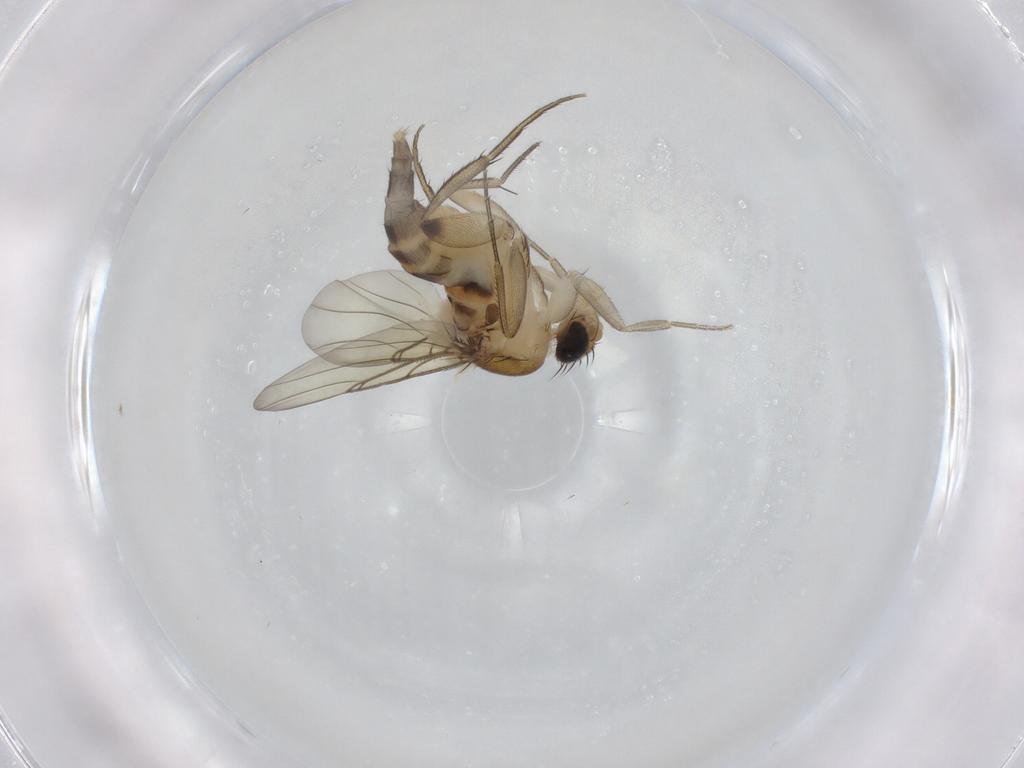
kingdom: Animalia
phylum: Arthropoda
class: Insecta
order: Diptera
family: Phoridae
